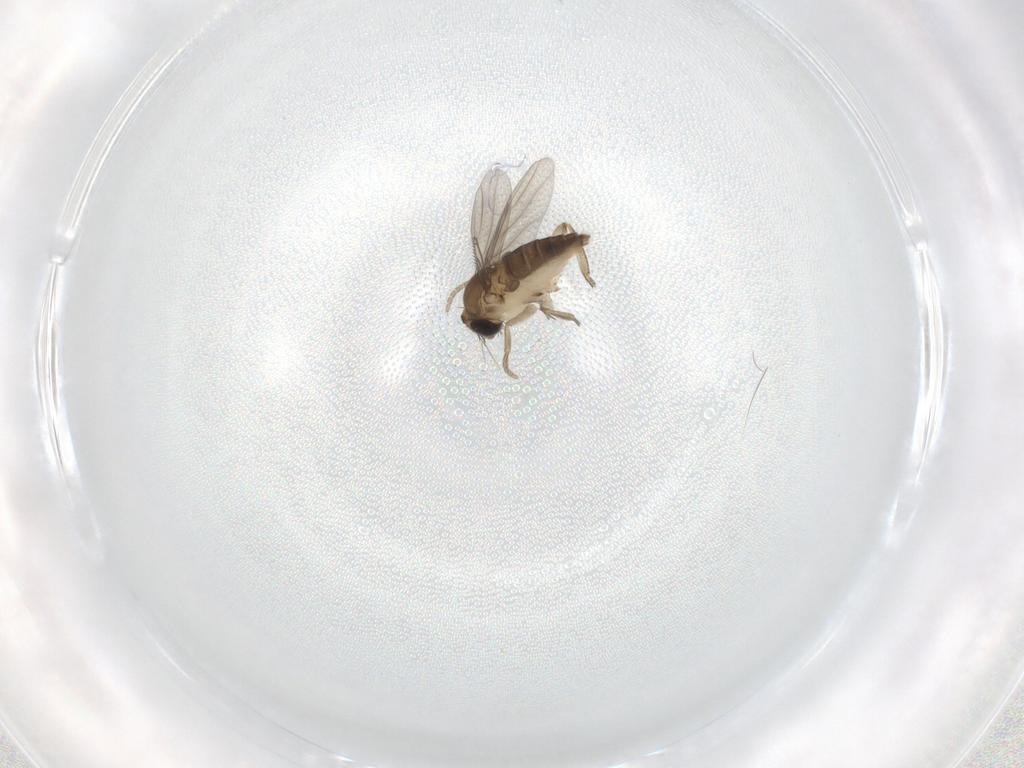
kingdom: Animalia
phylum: Arthropoda
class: Insecta
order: Diptera
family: Phoridae
